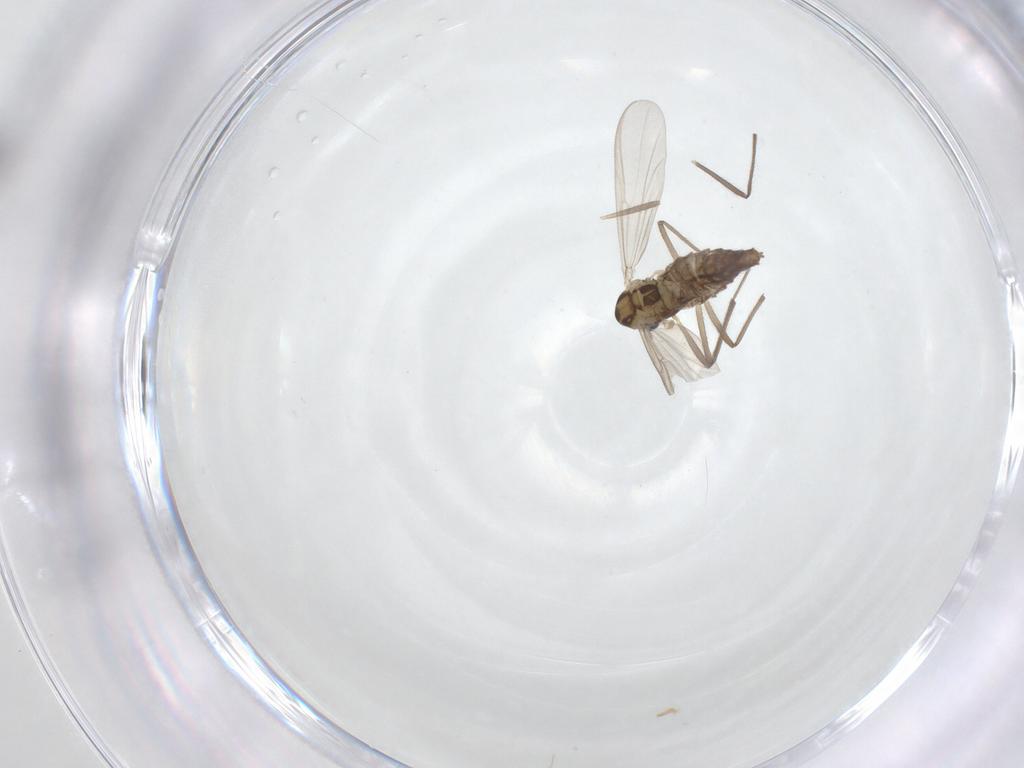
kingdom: Animalia
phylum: Arthropoda
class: Insecta
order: Diptera
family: Chironomidae
